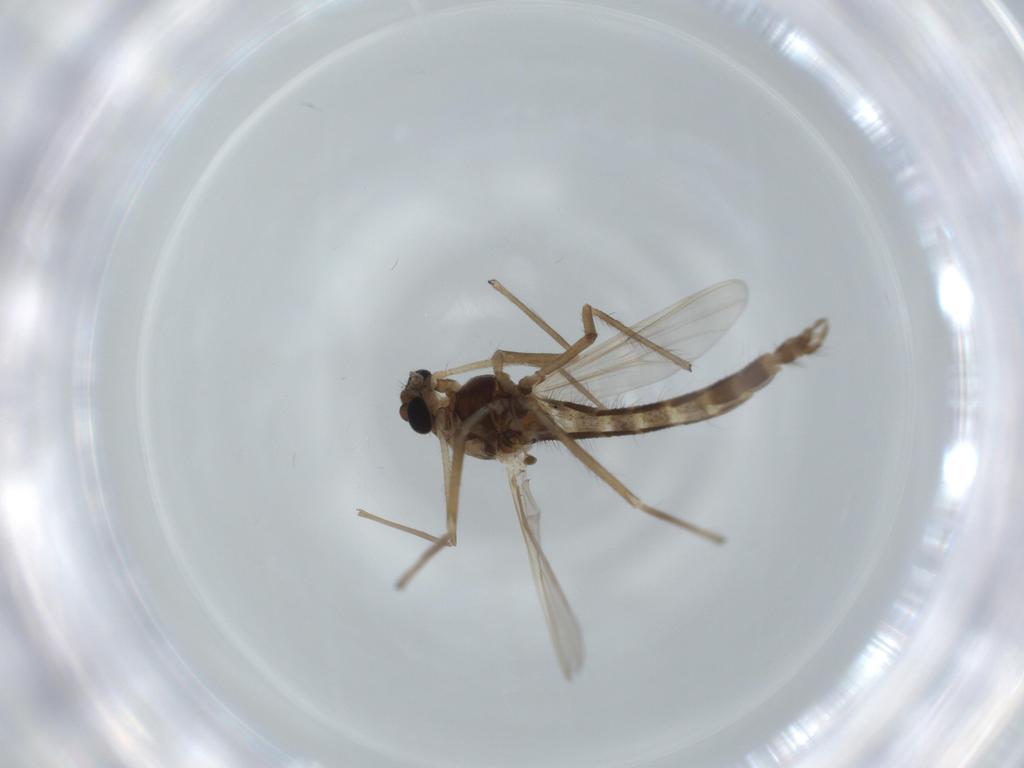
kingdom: Animalia
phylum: Arthropoda
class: Insecta
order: Diptera
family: Chironomidae
